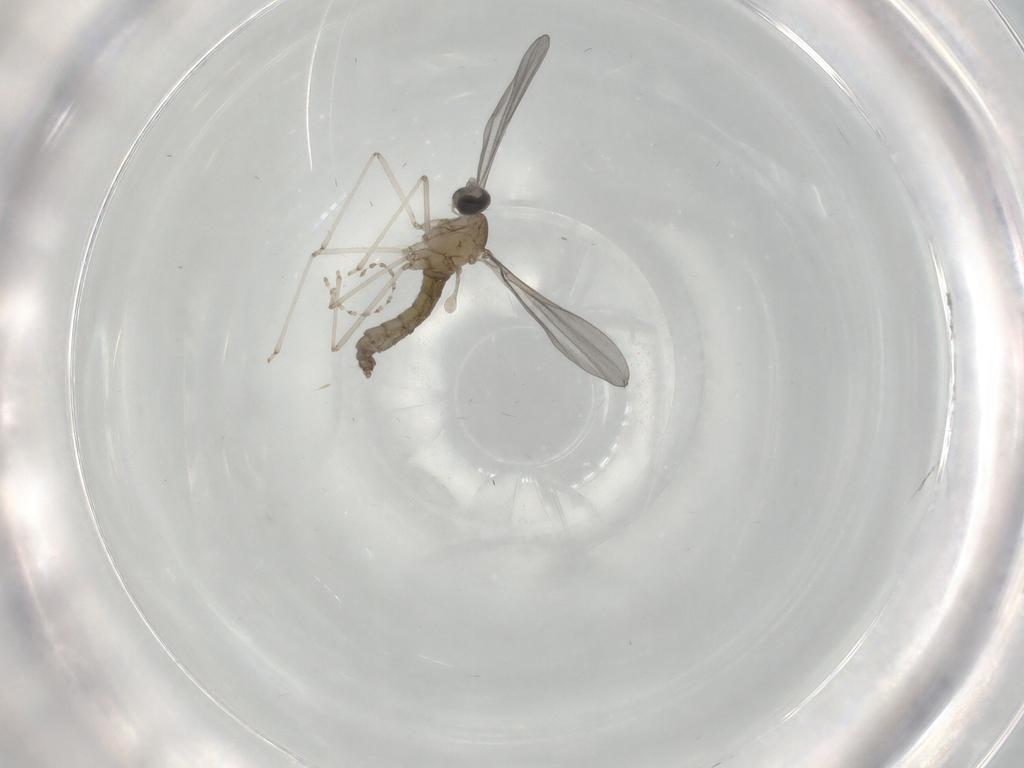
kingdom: Animalia
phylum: Arthropoda
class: Insecta
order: Diptera
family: Cecidomyiidae
